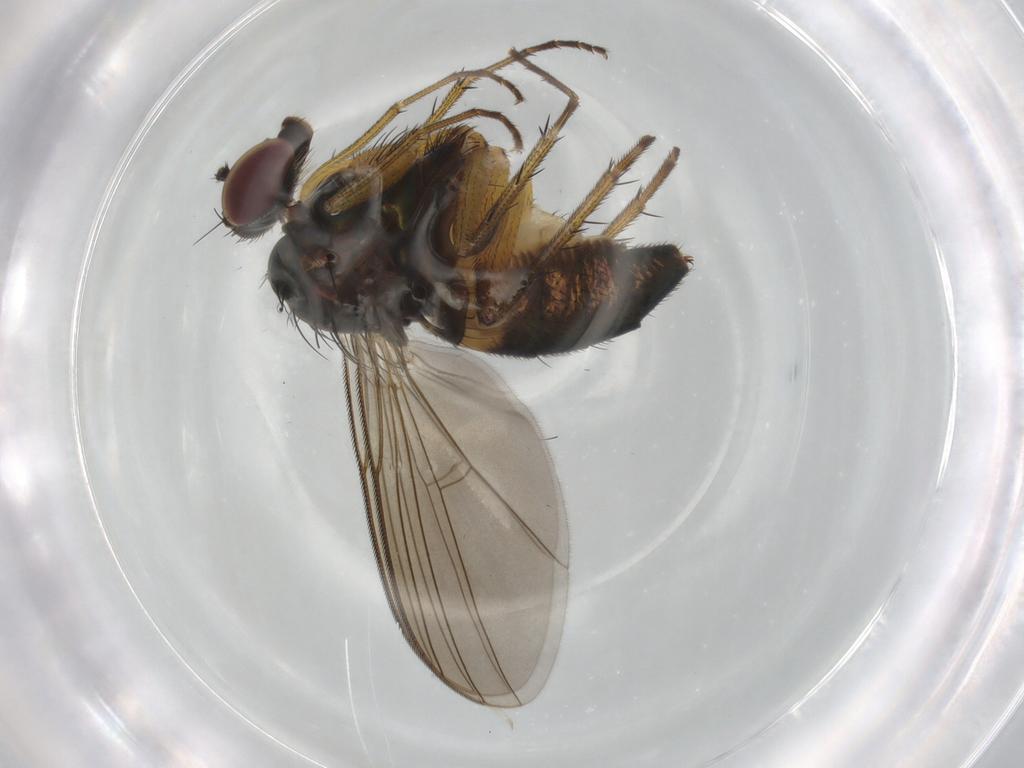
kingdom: Animalia
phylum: Arthropoda
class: Insecta
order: Diptera
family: Dolichopodidae
